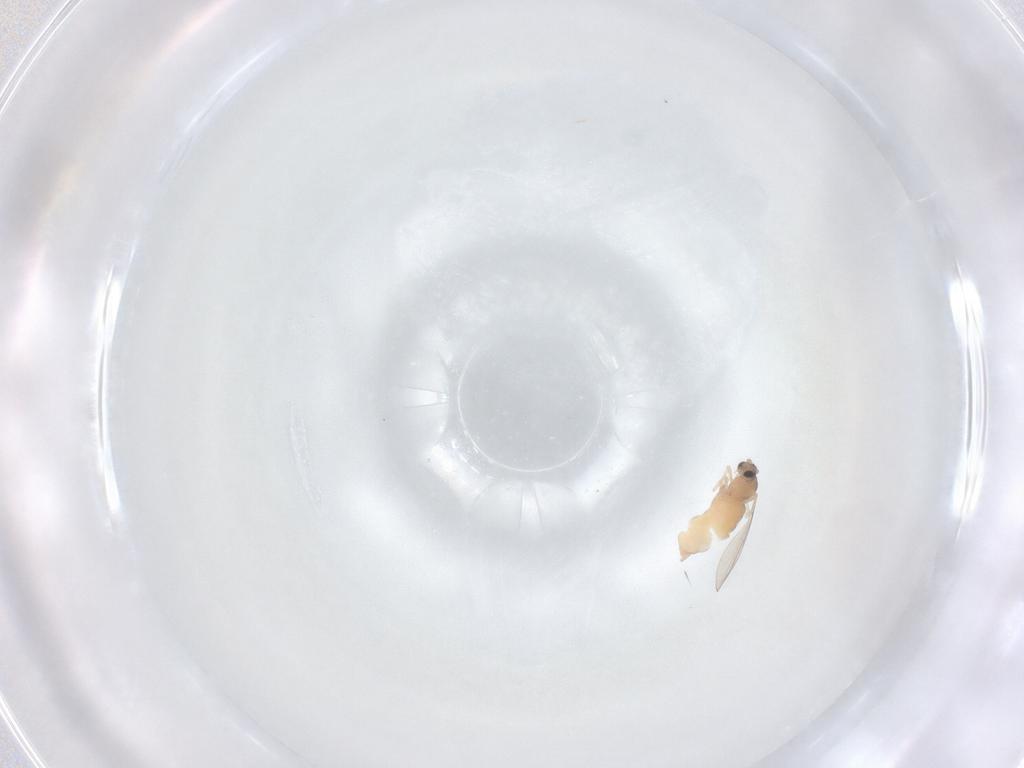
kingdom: Animalia
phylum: Arthropoda
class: Insecta
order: Diptera
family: Cecidomyiidae
